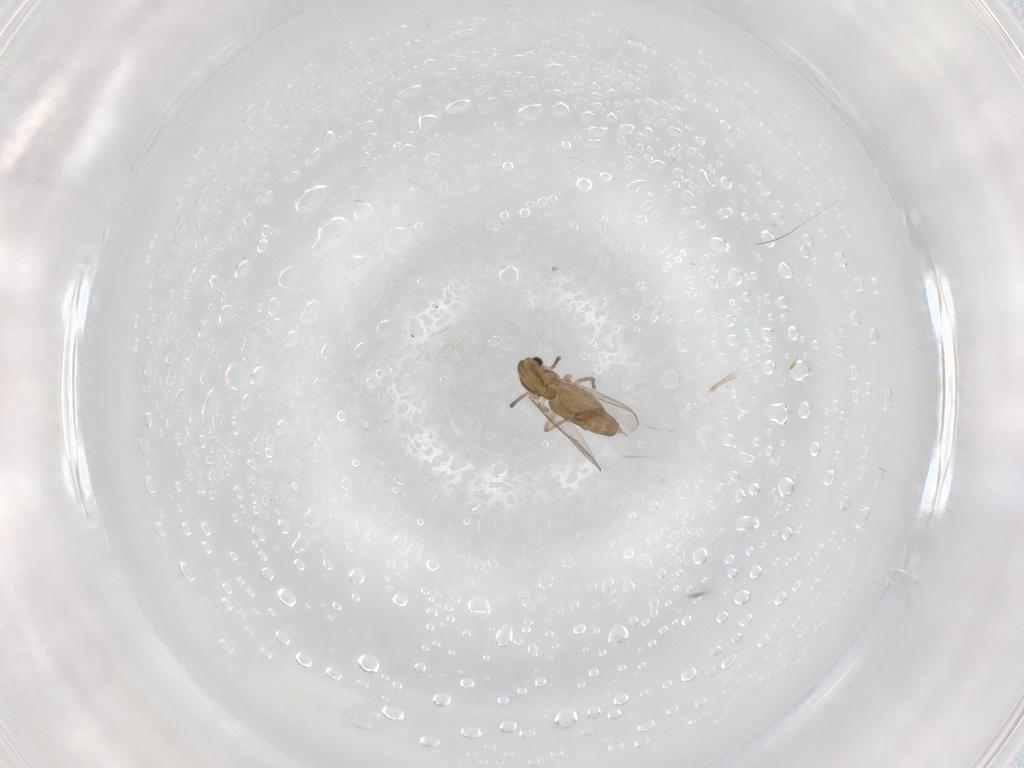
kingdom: Animalia
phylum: Arthropoda
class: Insecta
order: Diptera
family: Chironomidae
